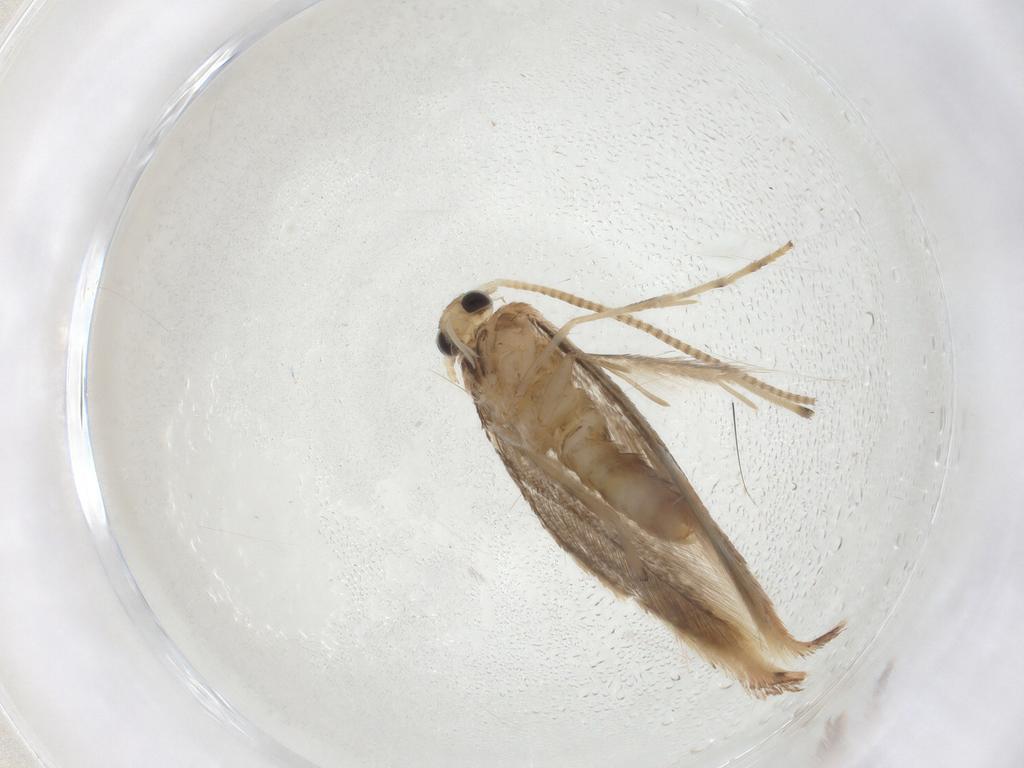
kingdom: Animalia
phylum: Arthropoda
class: Insecta
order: Lepidoptera
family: Gracillariidae
